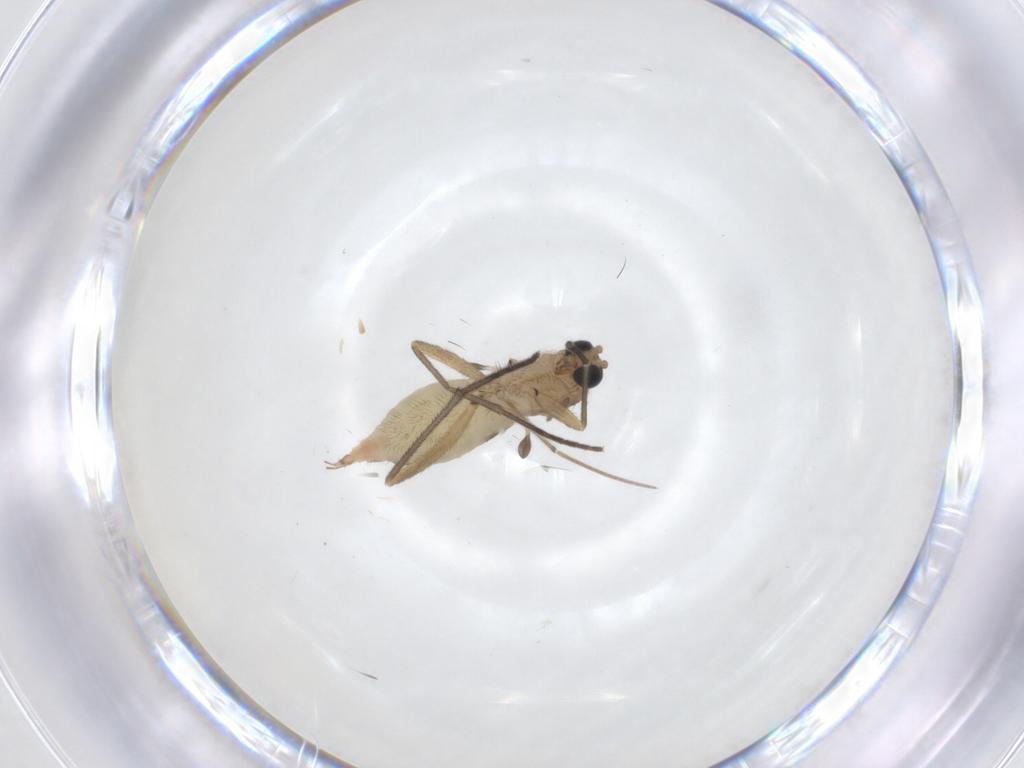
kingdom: Animalia
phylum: Arthropoda
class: Insecta
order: Diptera
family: Sciaridae
